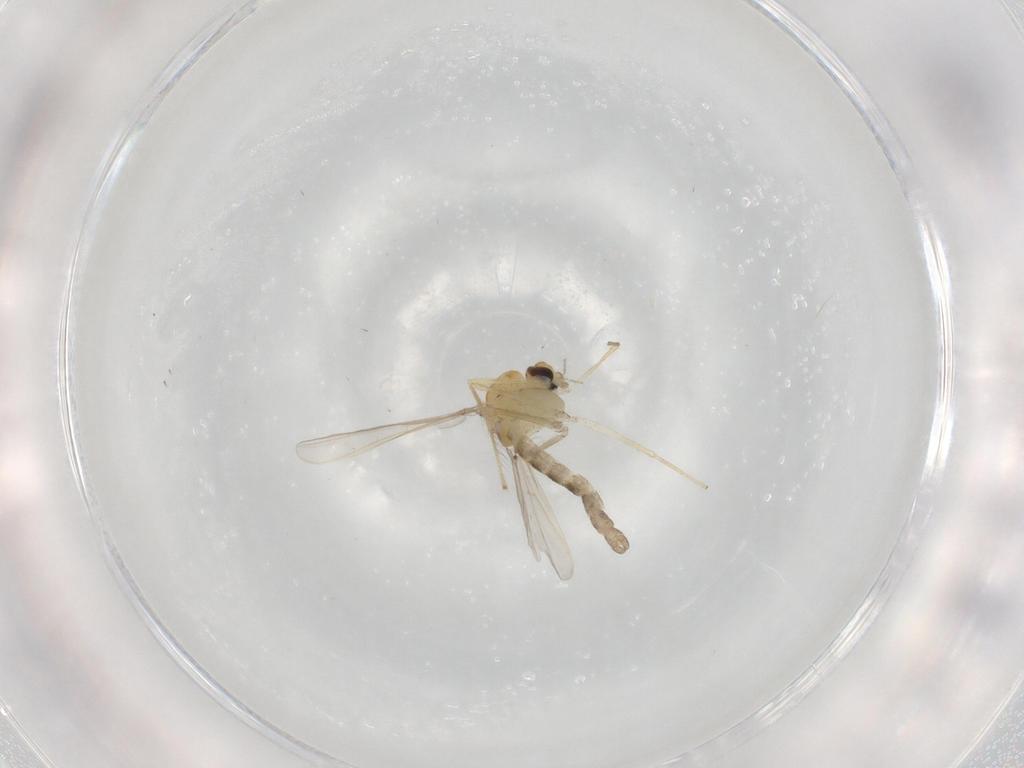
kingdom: Animalia
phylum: Arthropoda
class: Insecta
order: Diptera
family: Chironomidae
